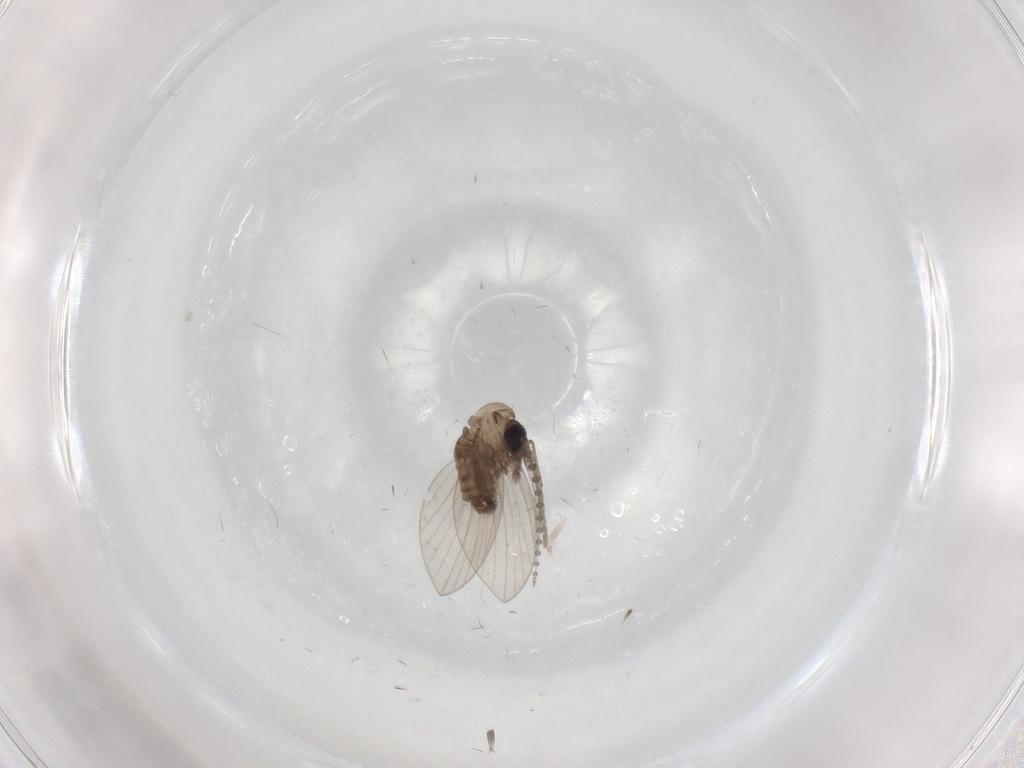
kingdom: Animalia
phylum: Arthropoda
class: Insecta
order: Diptera
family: Psychodidae
